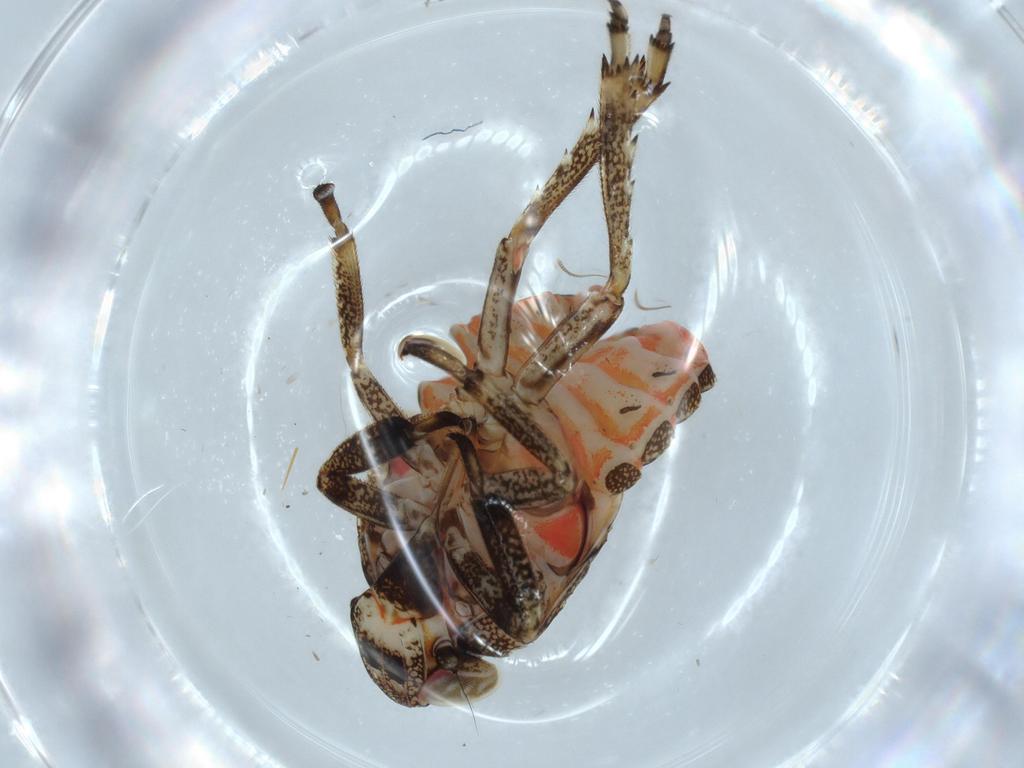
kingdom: Animalia
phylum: Arthropoda
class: Insecta
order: Hemiptera
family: Issidae
